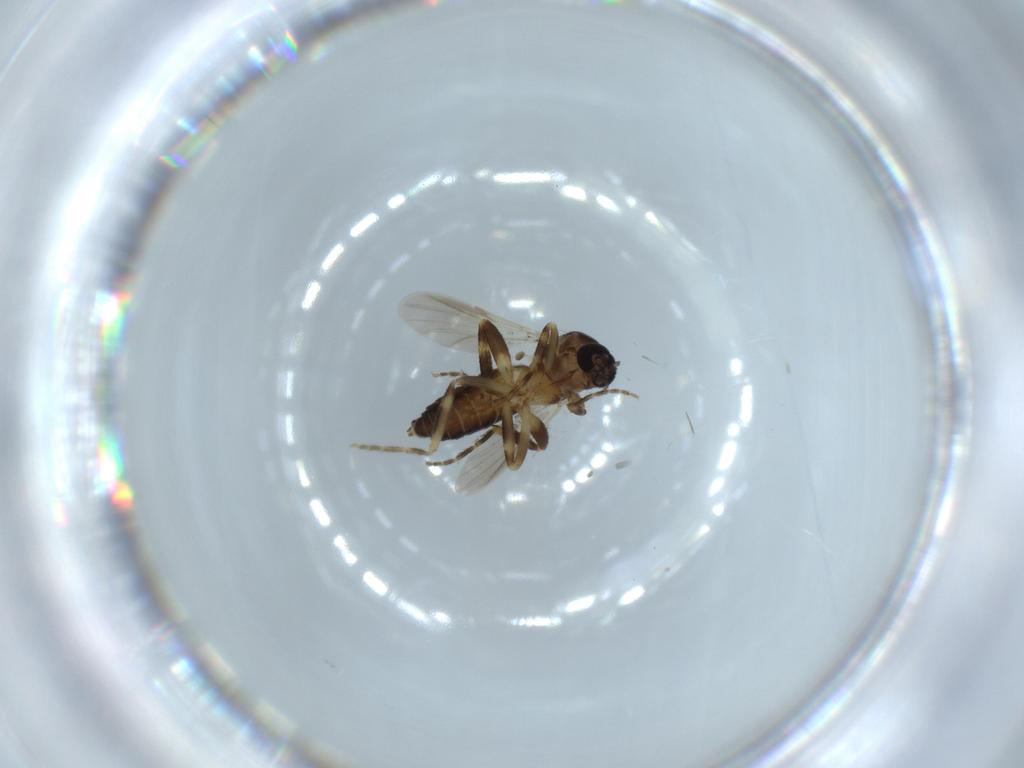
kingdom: Animalia
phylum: Arthropoda
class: Insecta
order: Diptera
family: Ceratopogonidae
